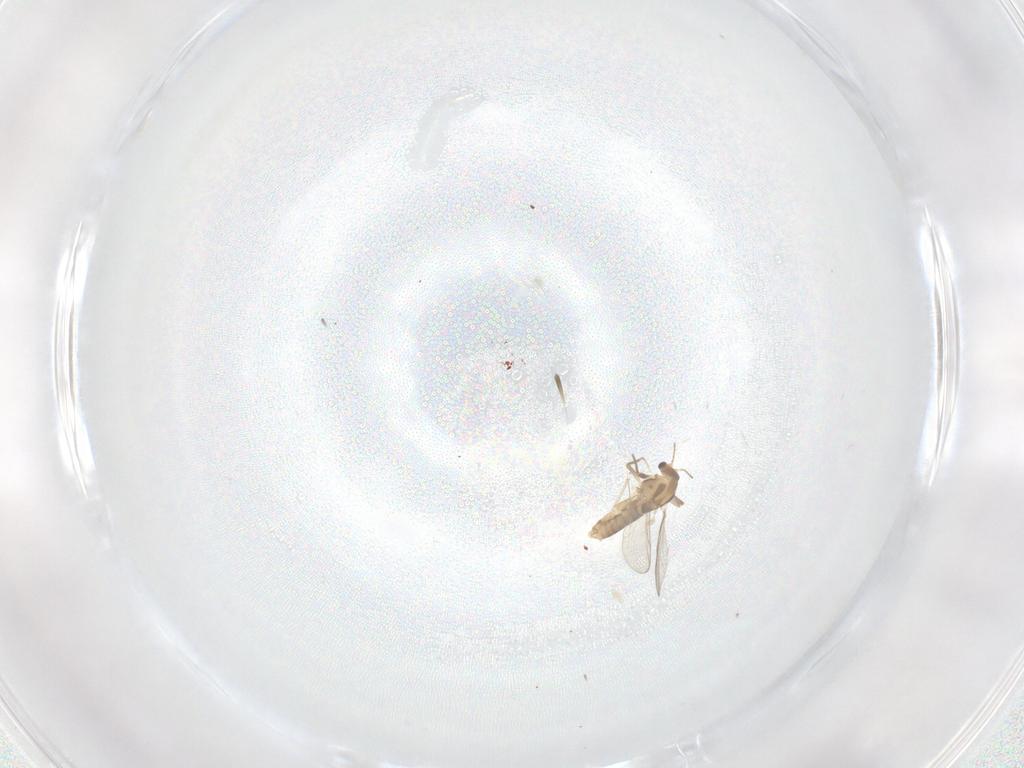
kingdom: Animalia
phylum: Arthropoda
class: Insecta
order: Diptera
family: Chironomidae
